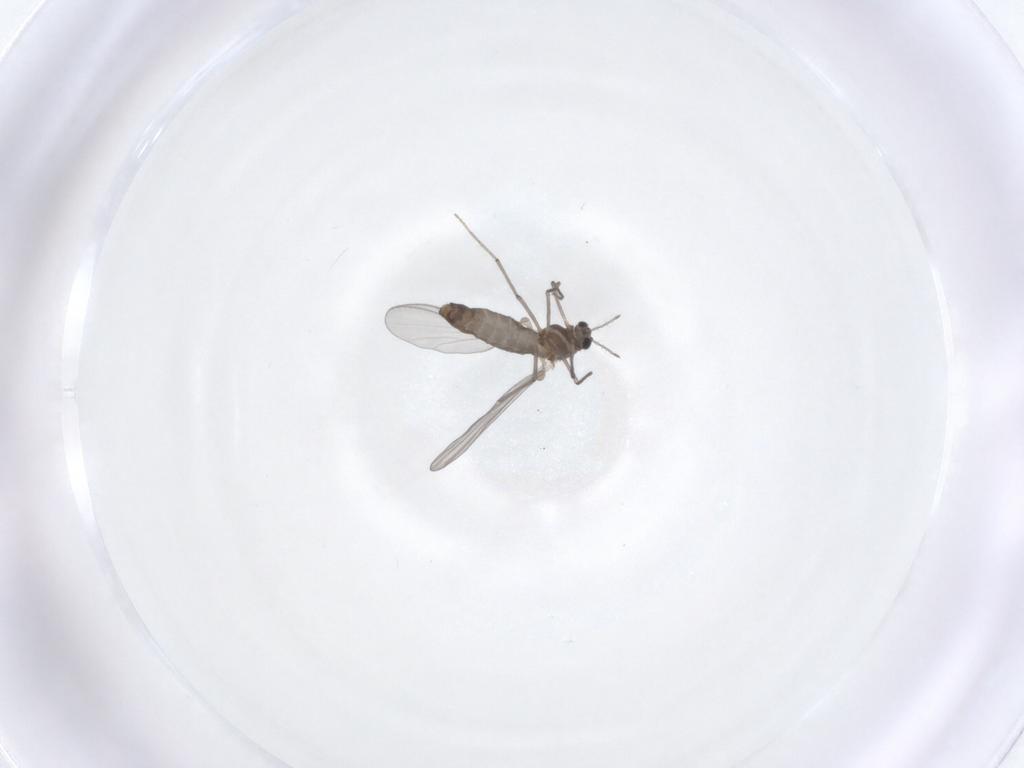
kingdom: Animalia
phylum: Arthropoda
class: Insecta
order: Diptera
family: Chironomidae
